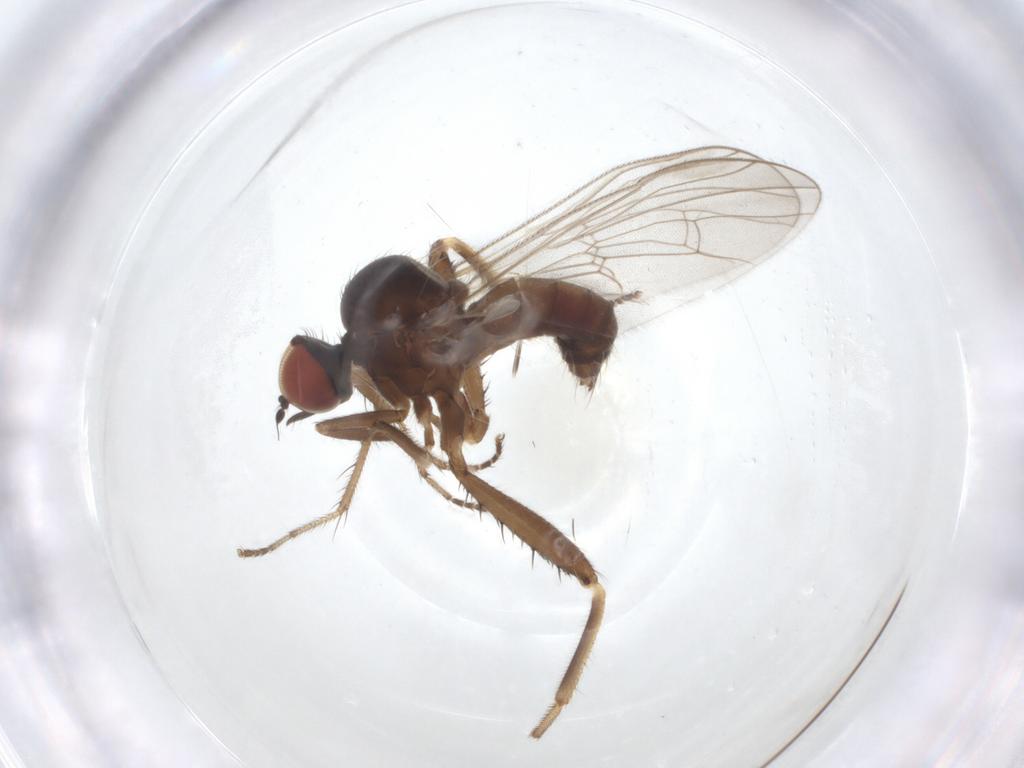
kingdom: Animalia
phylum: Arthropoda
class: Insecta
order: Diptera
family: Hybotidae
